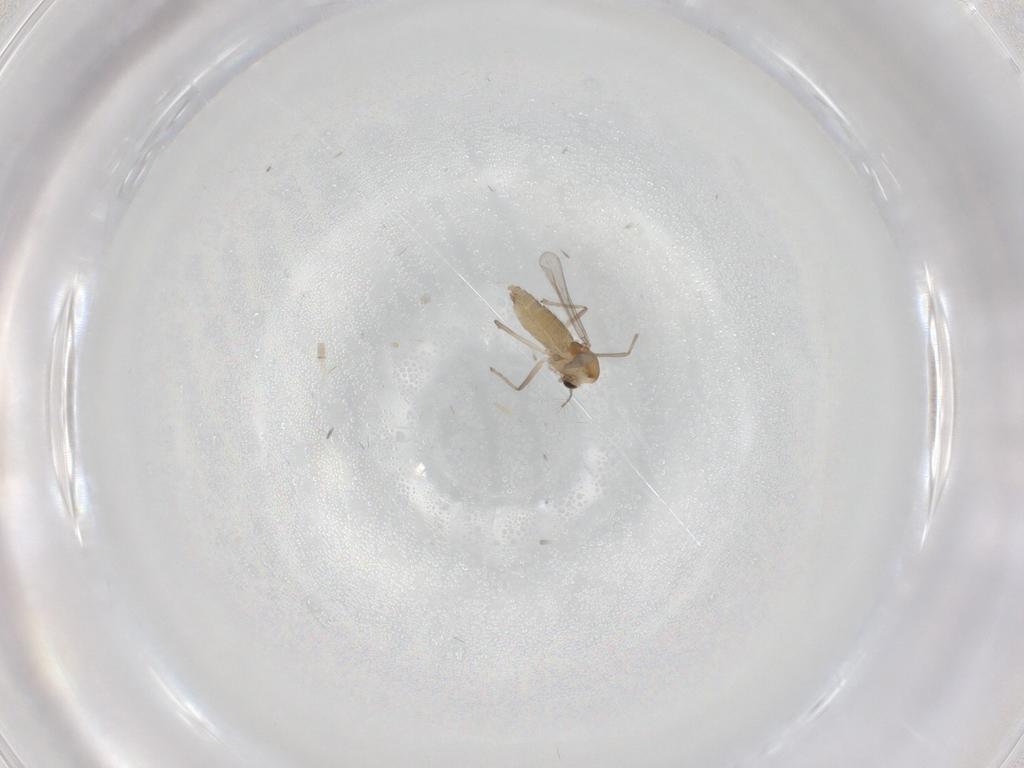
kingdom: Animalia
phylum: Arthropoda
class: Insecta
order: Diptera
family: Chironomidae
